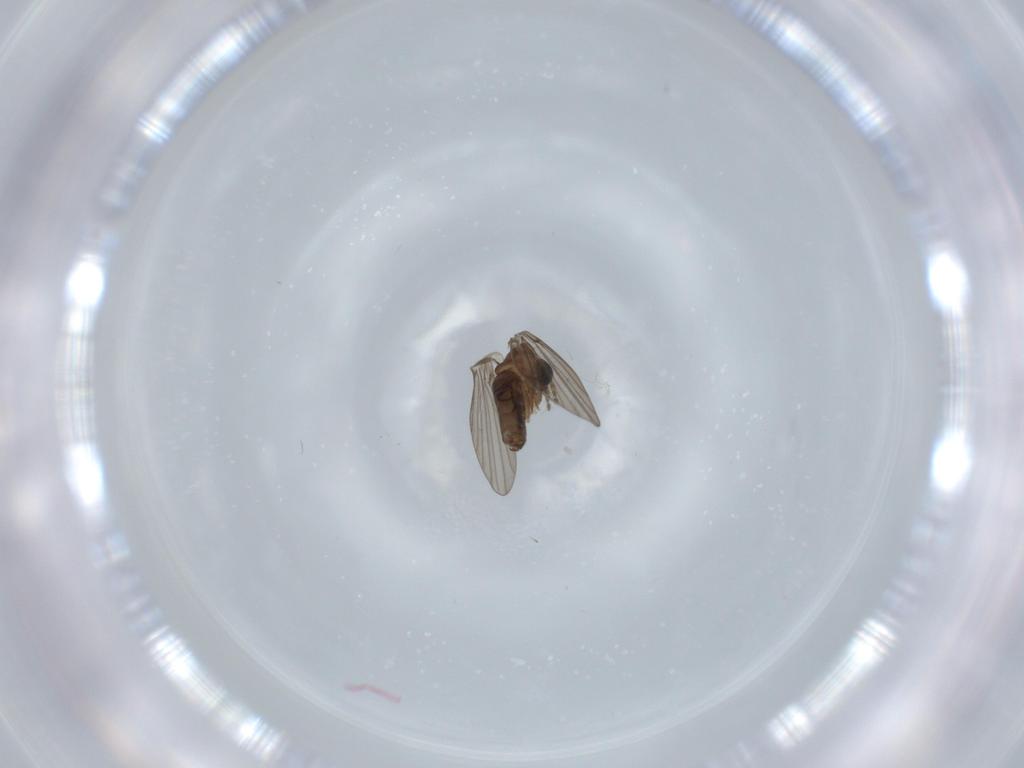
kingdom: Animalia
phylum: Arthropoda
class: Insecta
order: Diptera
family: Psychodidae
